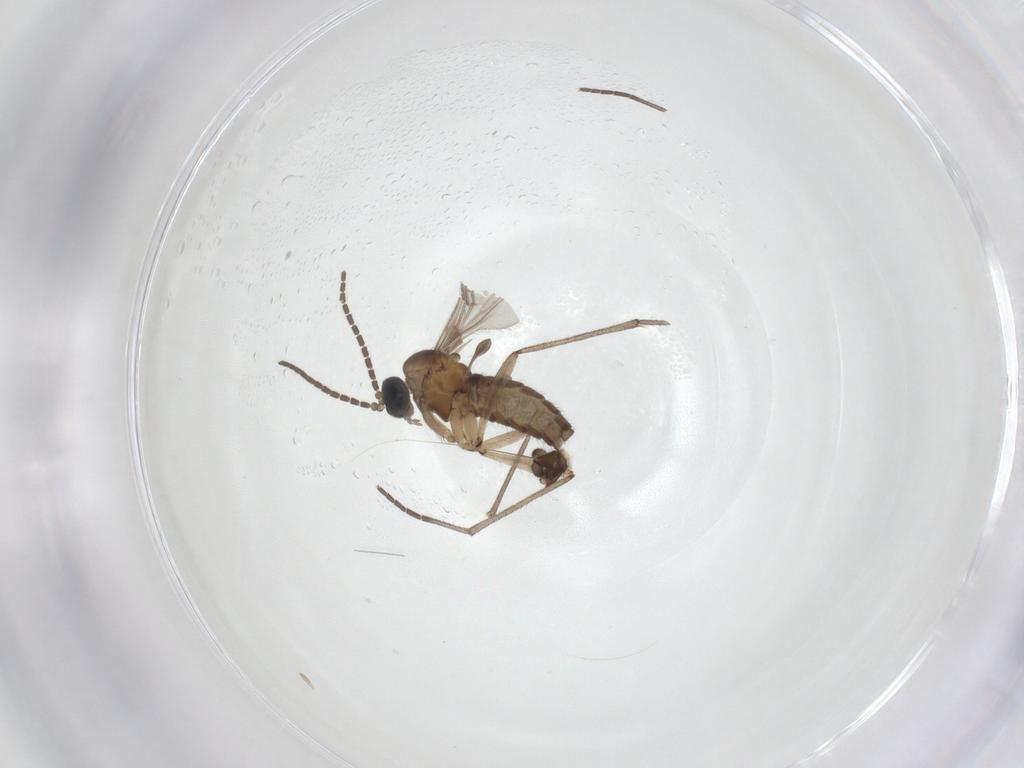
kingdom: Animalia
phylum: Arthropoda
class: Insecta
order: Diptera
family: Sciaridae
